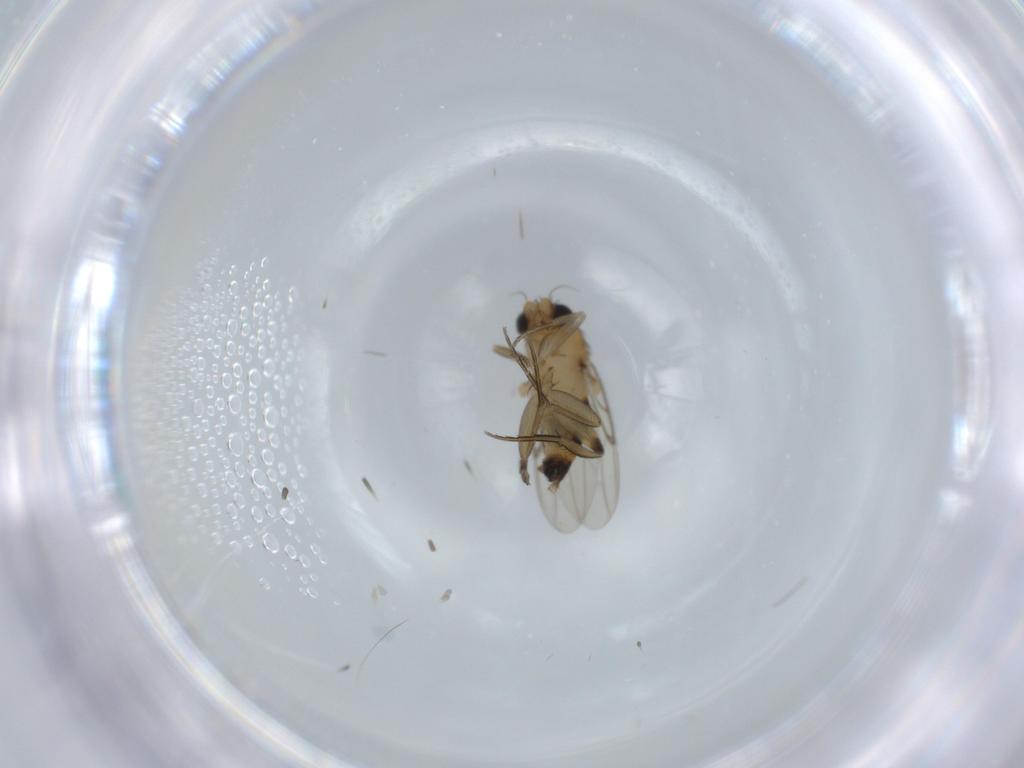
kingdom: Animalia
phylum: Arthropoda
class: Insecta
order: Diptera
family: Phoridae
